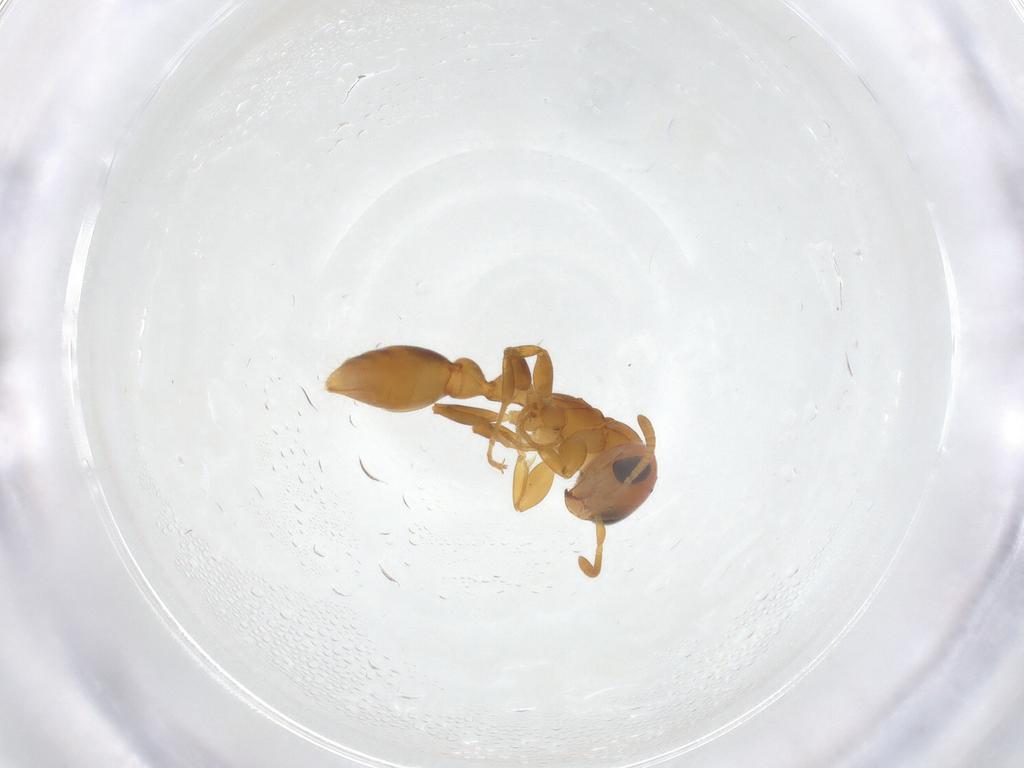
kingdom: Animalia
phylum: Arthropoda
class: Insecta
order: Hymenoptera
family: Formicidae
